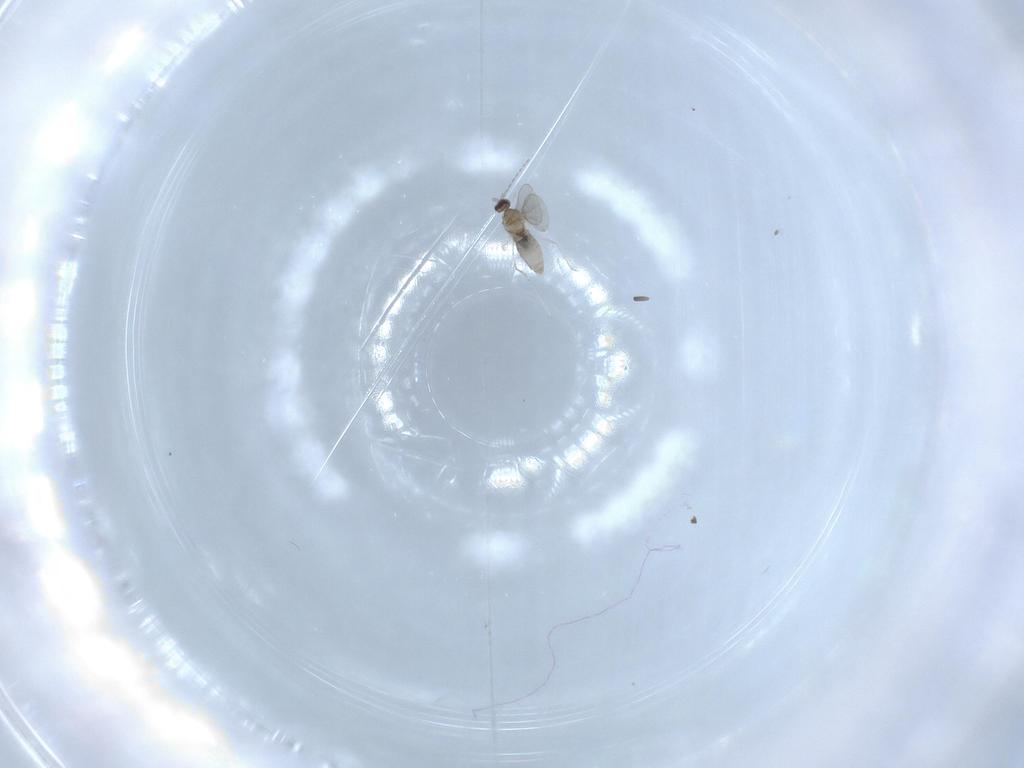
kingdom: Animalia
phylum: Arthropoda
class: Insecta
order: Diptera
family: Cecidomyiidae
